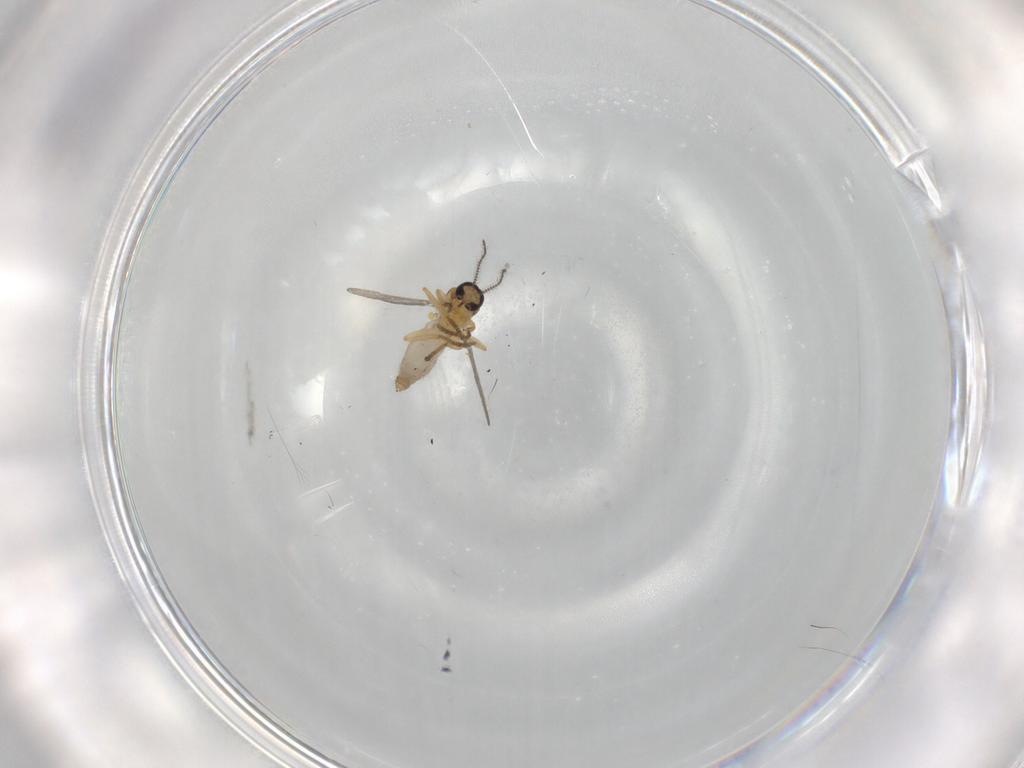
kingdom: Animalia
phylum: Arthropoda
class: Insecta
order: Diptera
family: Ceratopogonidae
